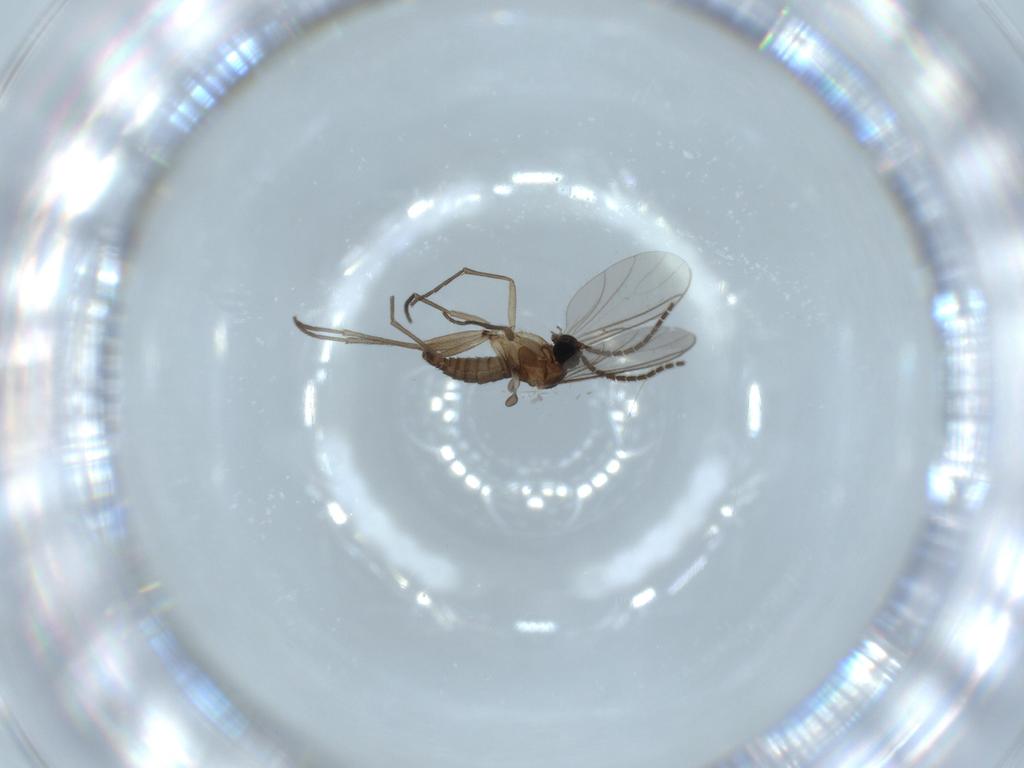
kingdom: Animalia
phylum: Arthropoda
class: Insecta
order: Diptera
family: Sciaridae
